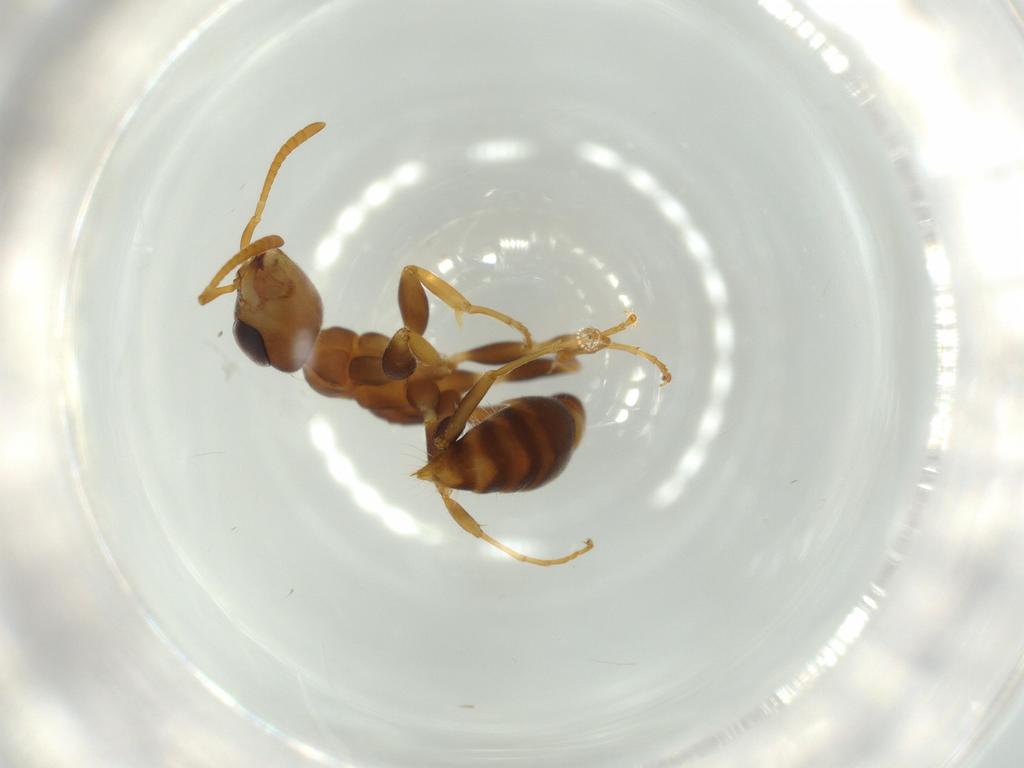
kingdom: Animalia
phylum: Arthropoda
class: Insecta
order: Hymenoptera
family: Formicidae
